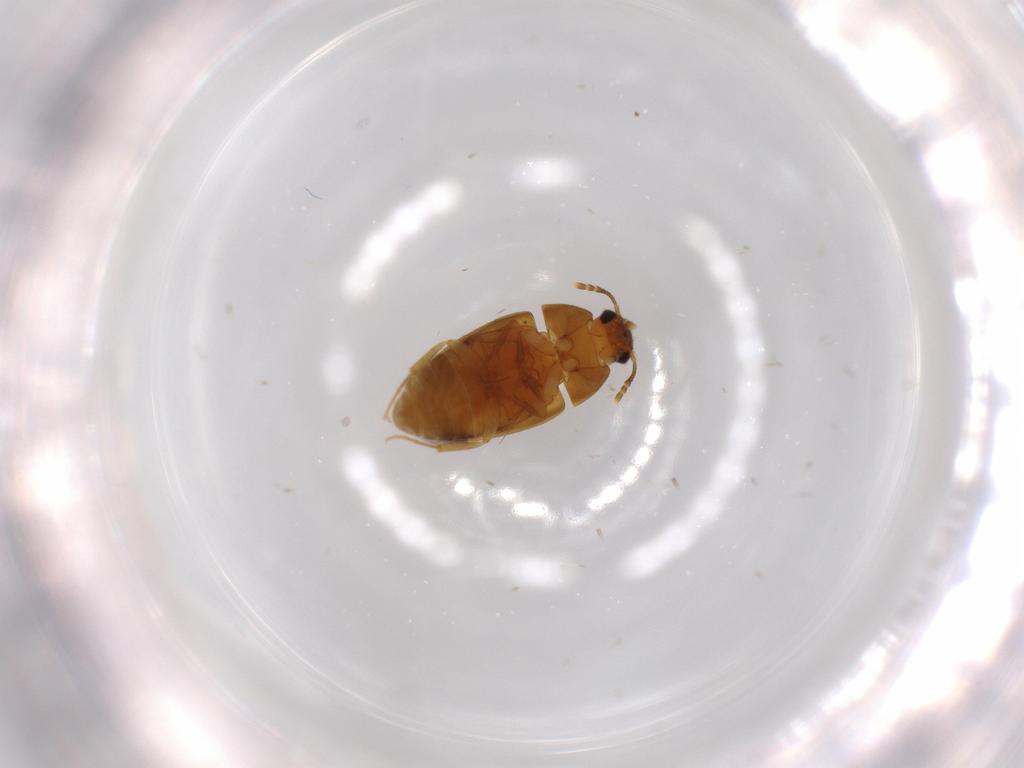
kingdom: Animalia
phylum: Arthropoda
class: Insecta
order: Coleoptera
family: Mycetophagidae
